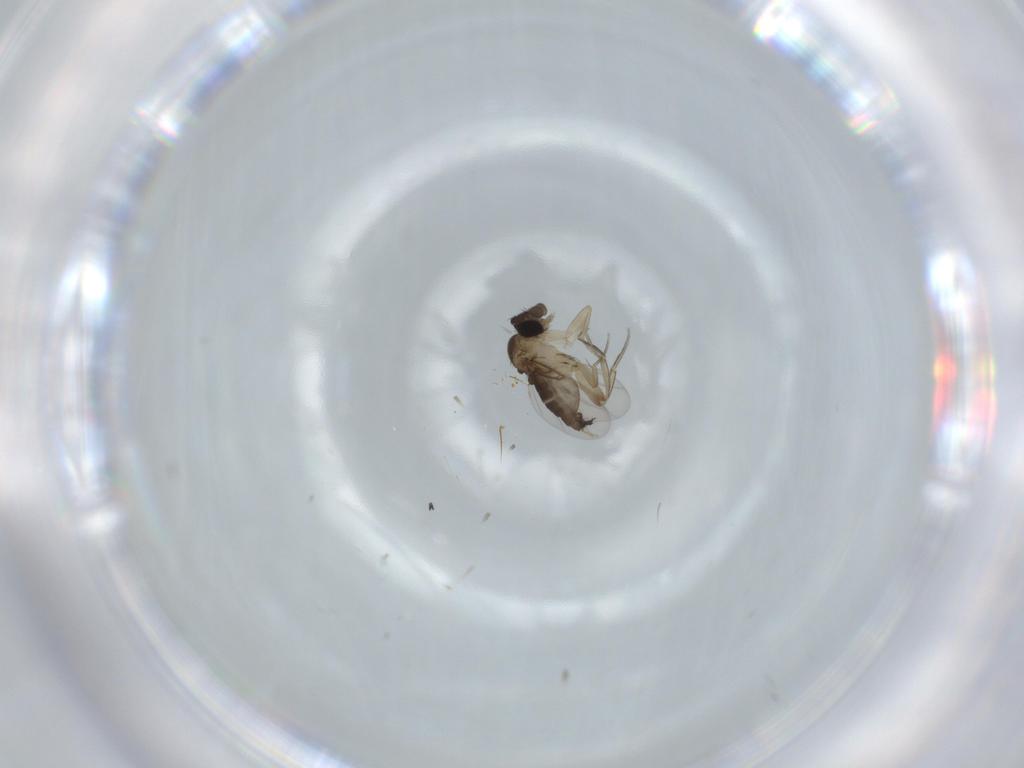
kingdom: Animalia
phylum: Arthropoda
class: Insecta
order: Diptera
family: Phoridae
